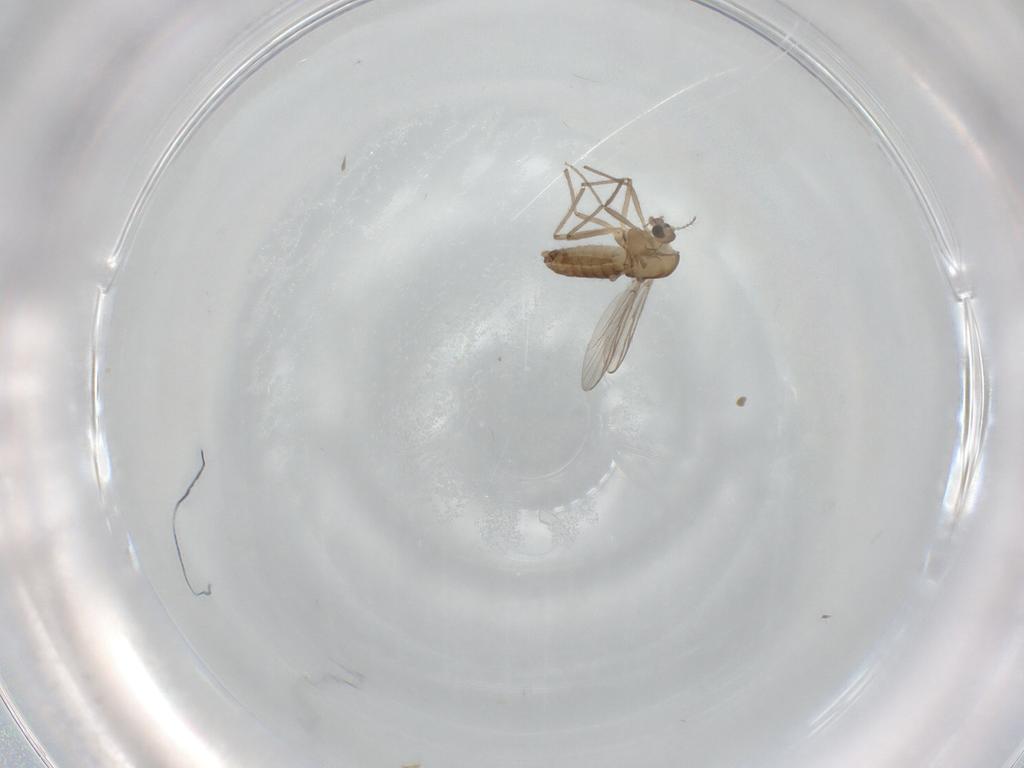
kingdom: Animalia
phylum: Arthropoda
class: Insecta
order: Diptera
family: Chironomidae
